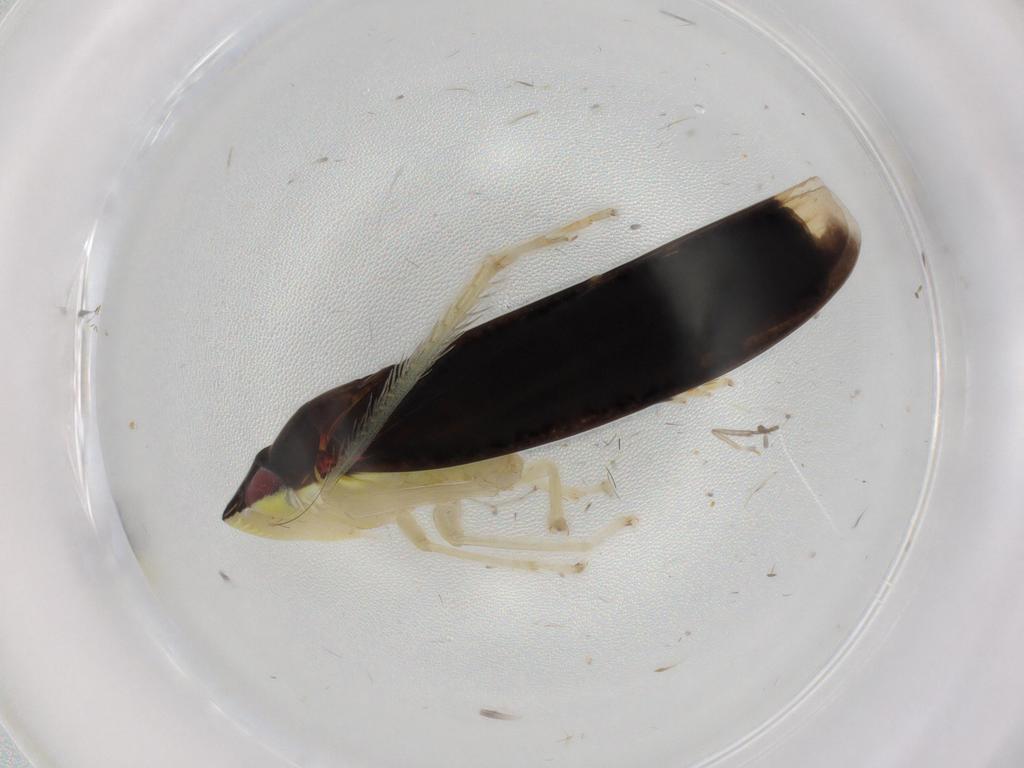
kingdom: Animalia
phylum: Arthropoda
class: Insecta
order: Hemiptera
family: Cicadellidae
